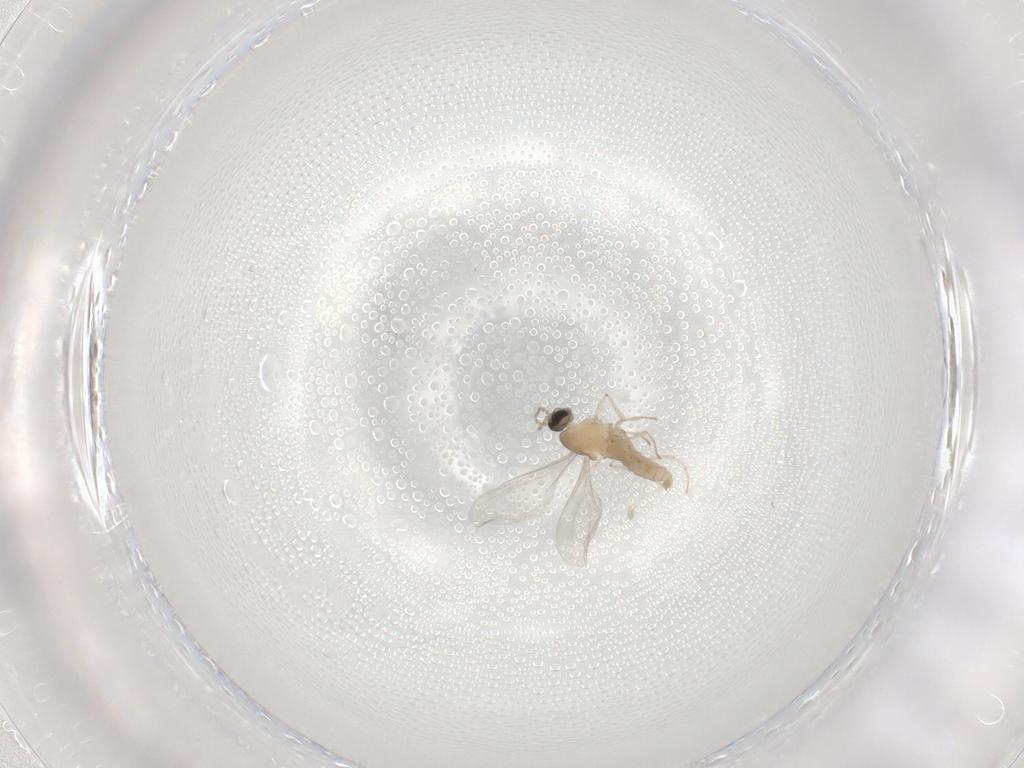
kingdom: Animalia
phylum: Arthropoda
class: Insecta
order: Diptera
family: Cecidomyiidae
